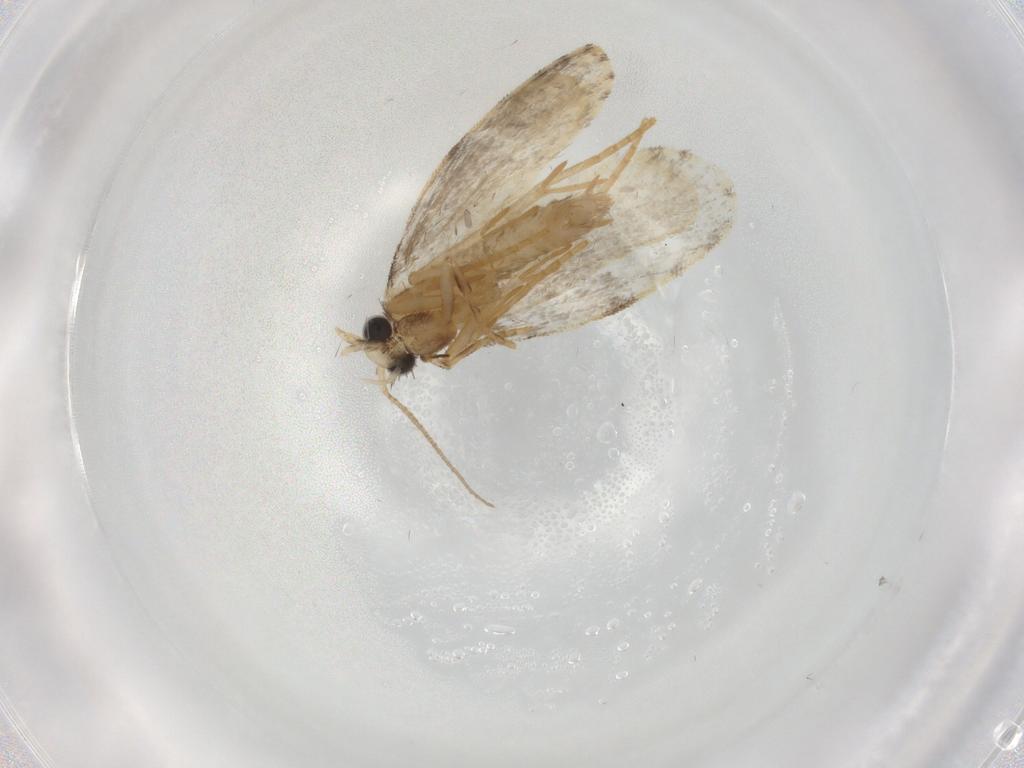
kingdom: Animalia
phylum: Arthropoda
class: Insecta
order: Lepidoptera
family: Psychidae
